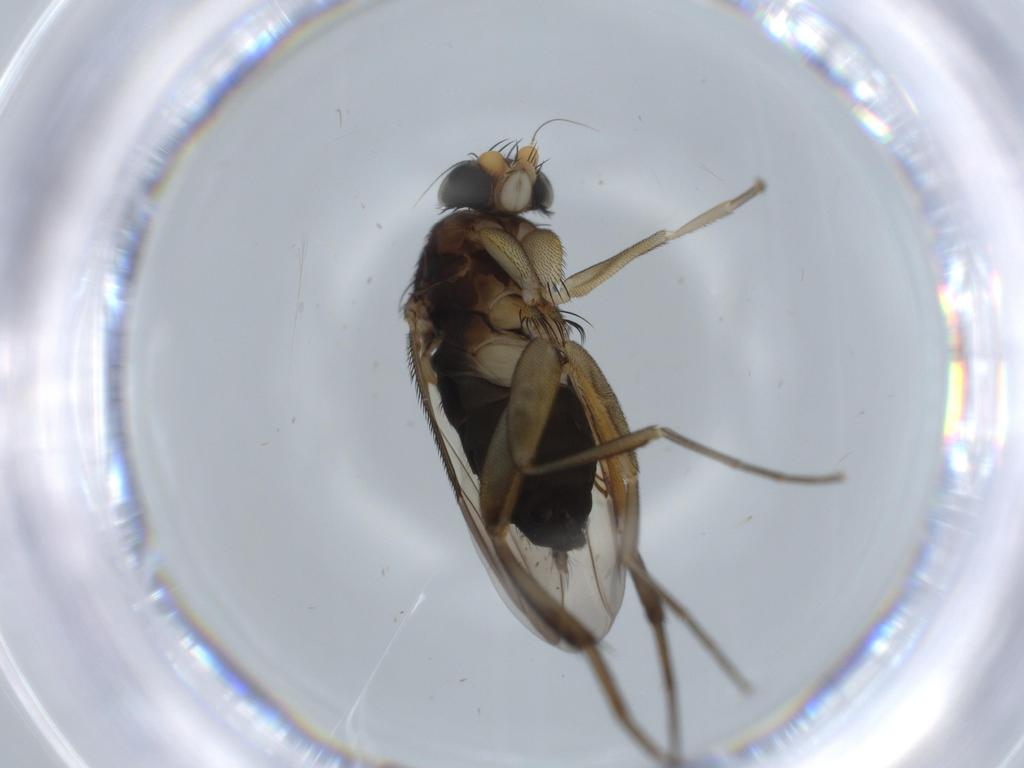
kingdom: Animalia
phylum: Arthropoda
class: Insecta
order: Diptera
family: Phoridae
